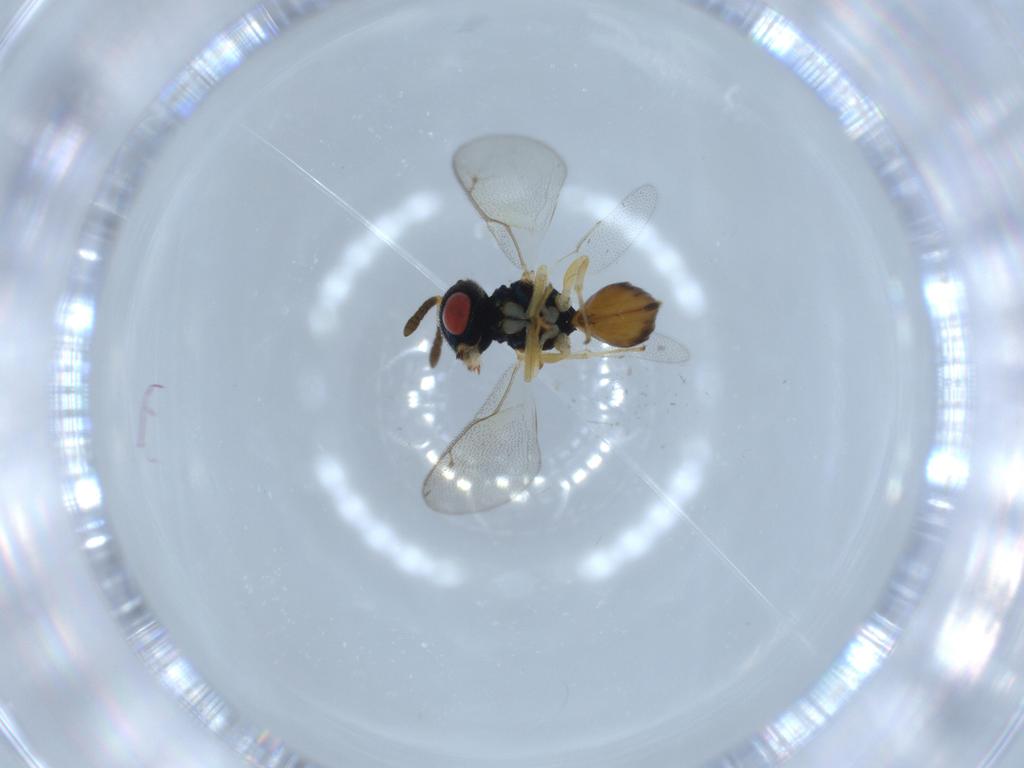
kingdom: Animalia
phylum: Arthropoda
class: Insecta
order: Hymenoptera
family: Pteromalidae
